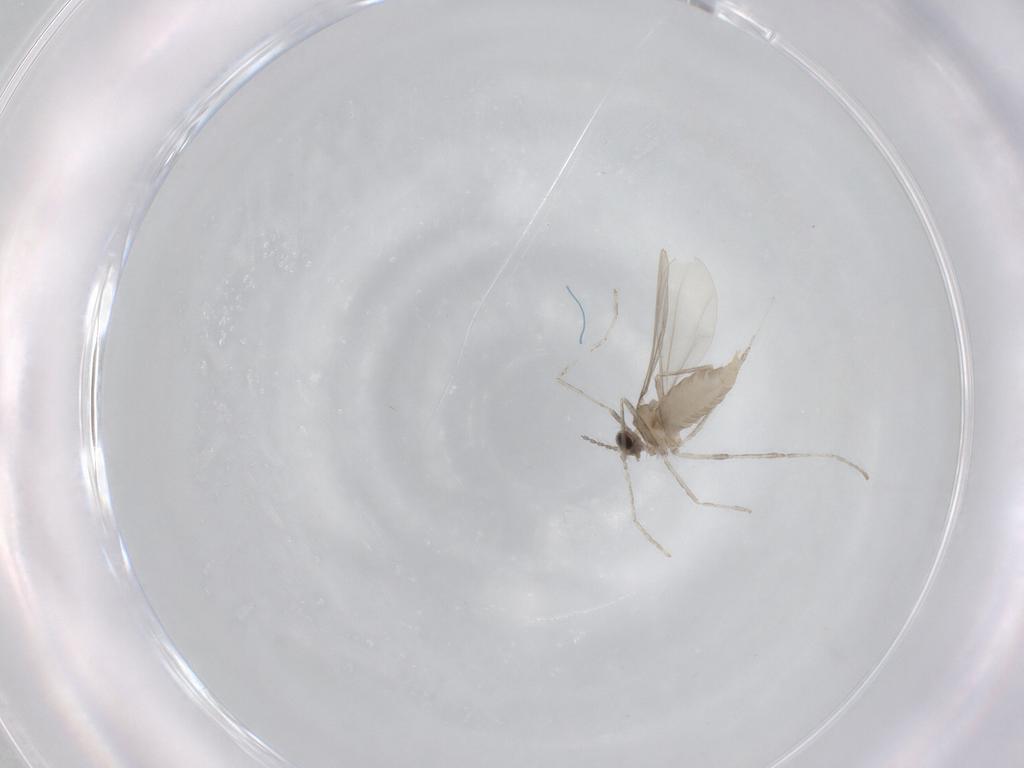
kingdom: Animalia
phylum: Arthropoda
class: Insecta
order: Diptera
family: Cecidomyiidae
